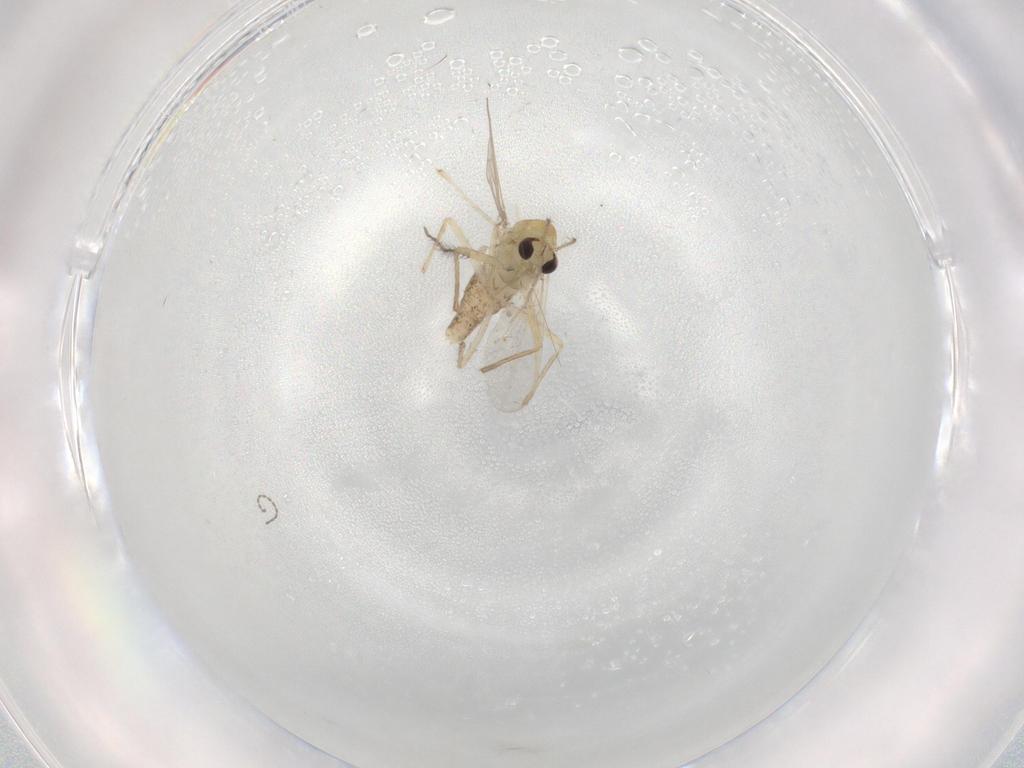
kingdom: Animalia
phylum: Arthropoda
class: Insecta
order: Diptera
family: Chironomidae
